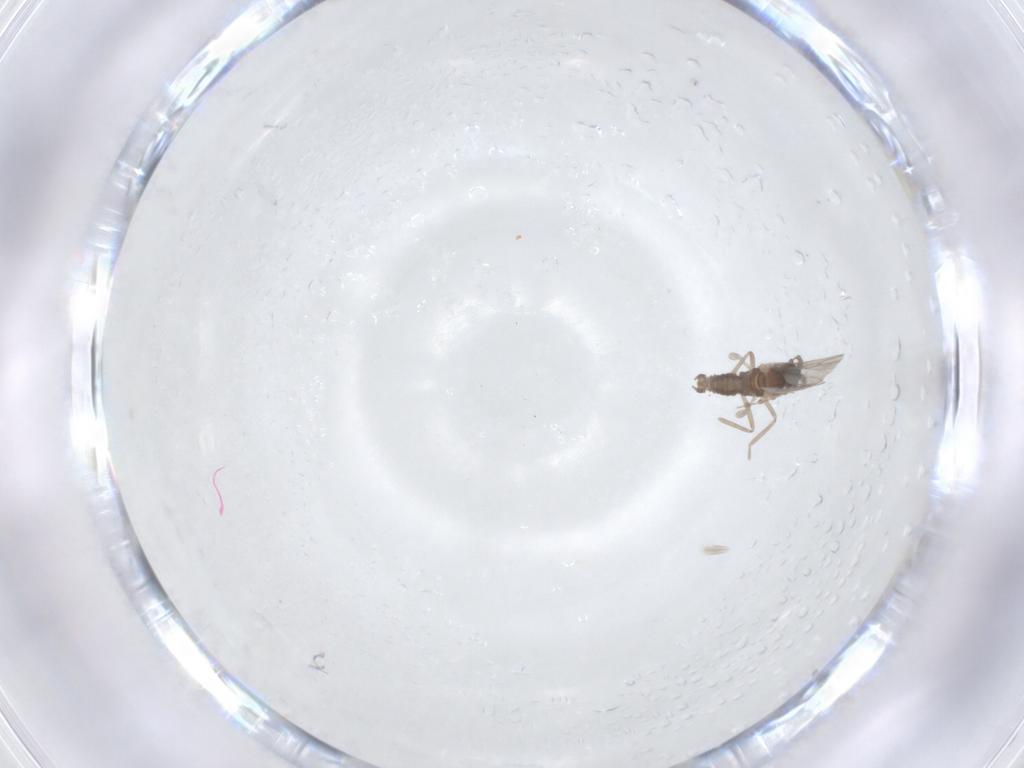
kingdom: Animalia
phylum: Arthropoda
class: Insecta
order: Diptera
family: Cecidomyiidae
